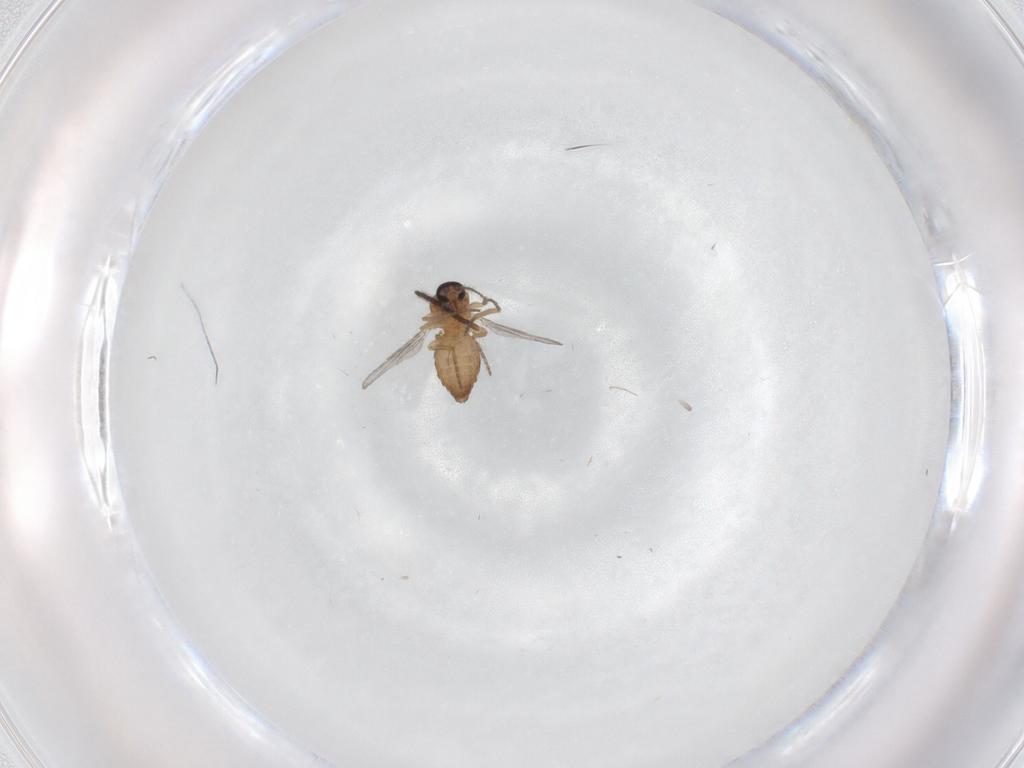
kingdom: Animalia
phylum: Arthropoda
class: Insecta
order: Diptera
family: Ceratopogonidae
